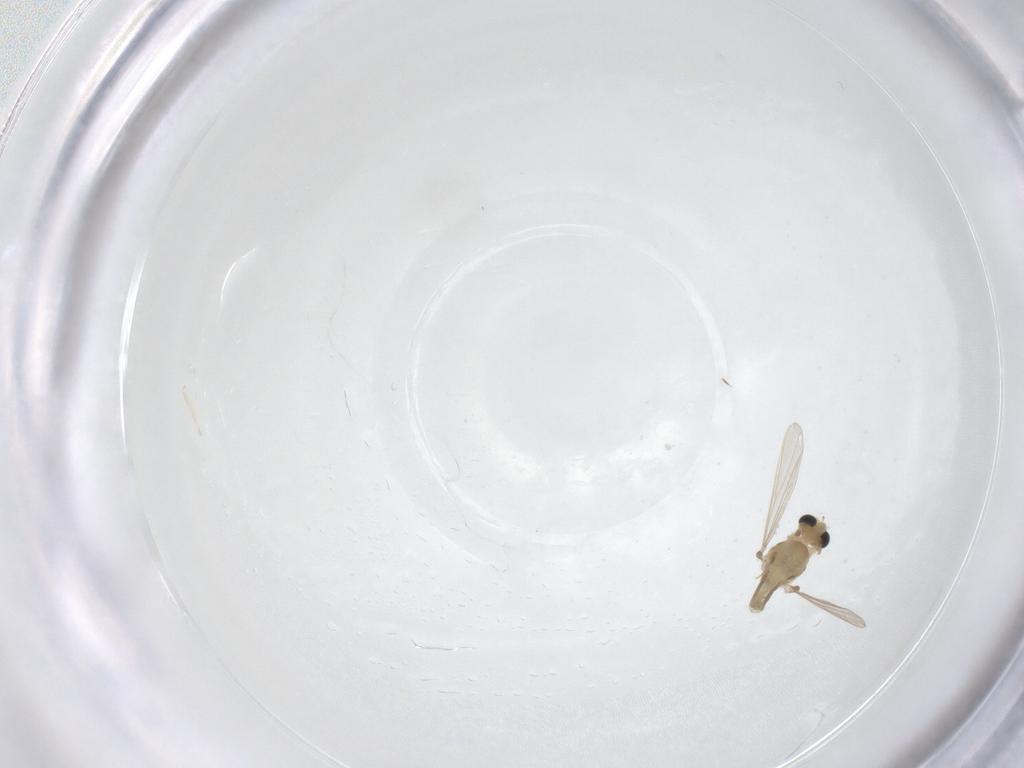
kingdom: Animalia
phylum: Arthropoda
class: Insecta
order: Diptera
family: Chironomidae
